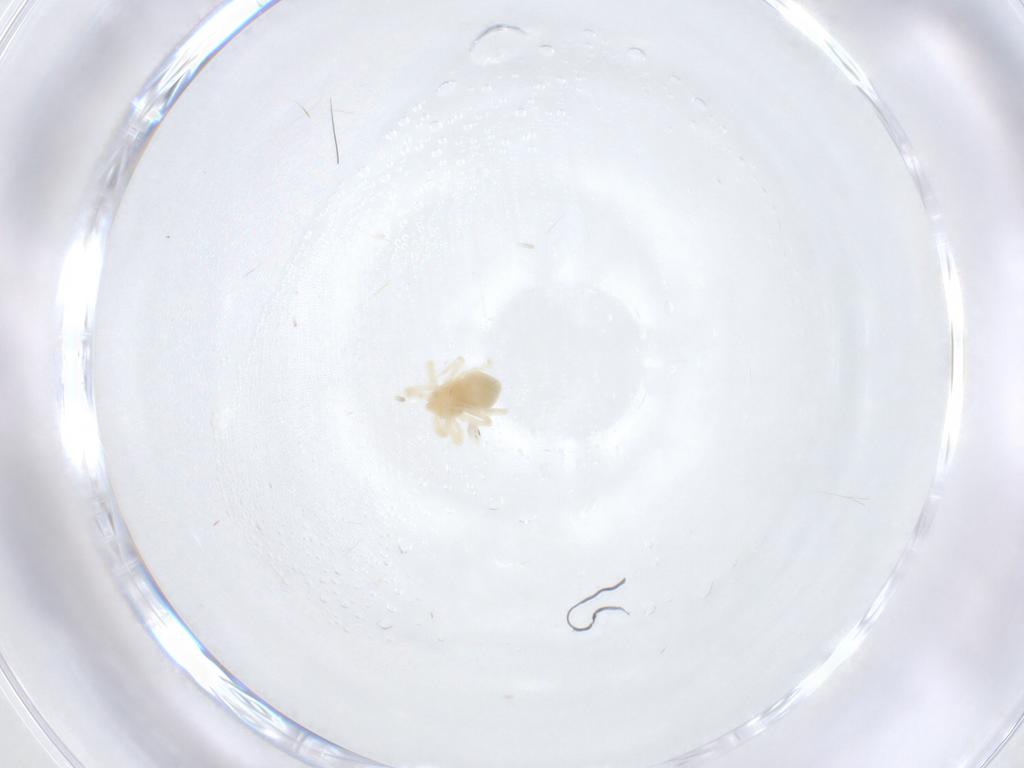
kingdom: Animalia
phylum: Arthropoda
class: Arachnida
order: Trombidiformes
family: Anystidae
